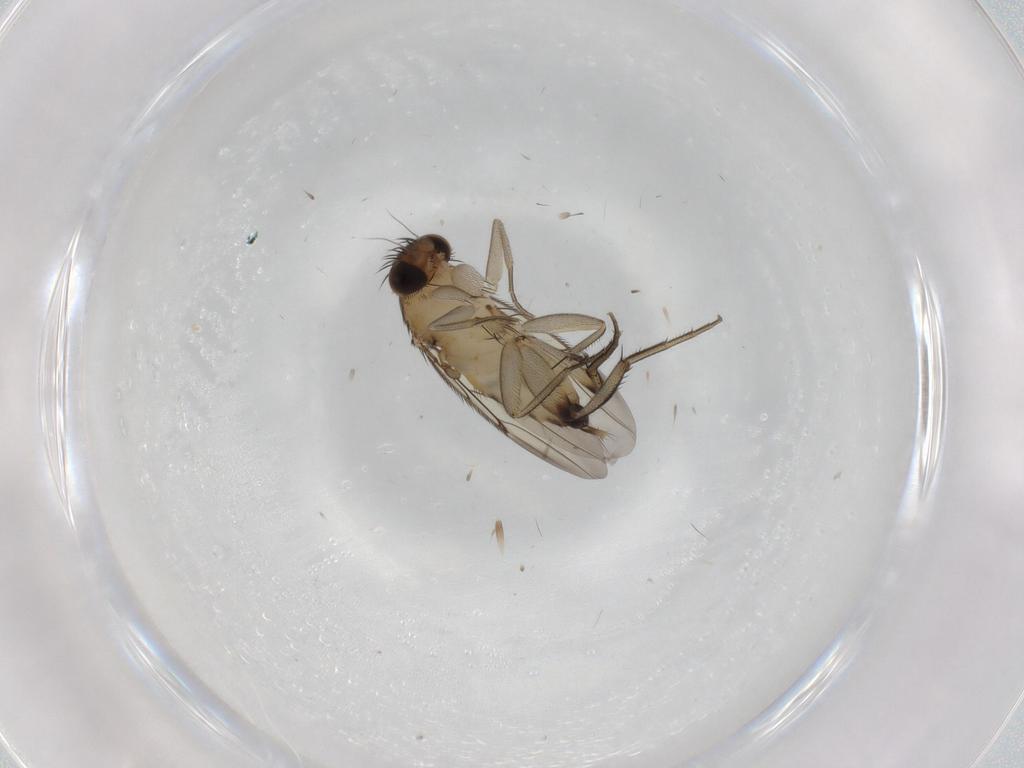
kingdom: Animalia
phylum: Arthropoda
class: Insecta
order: Diptera
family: Phoridae
